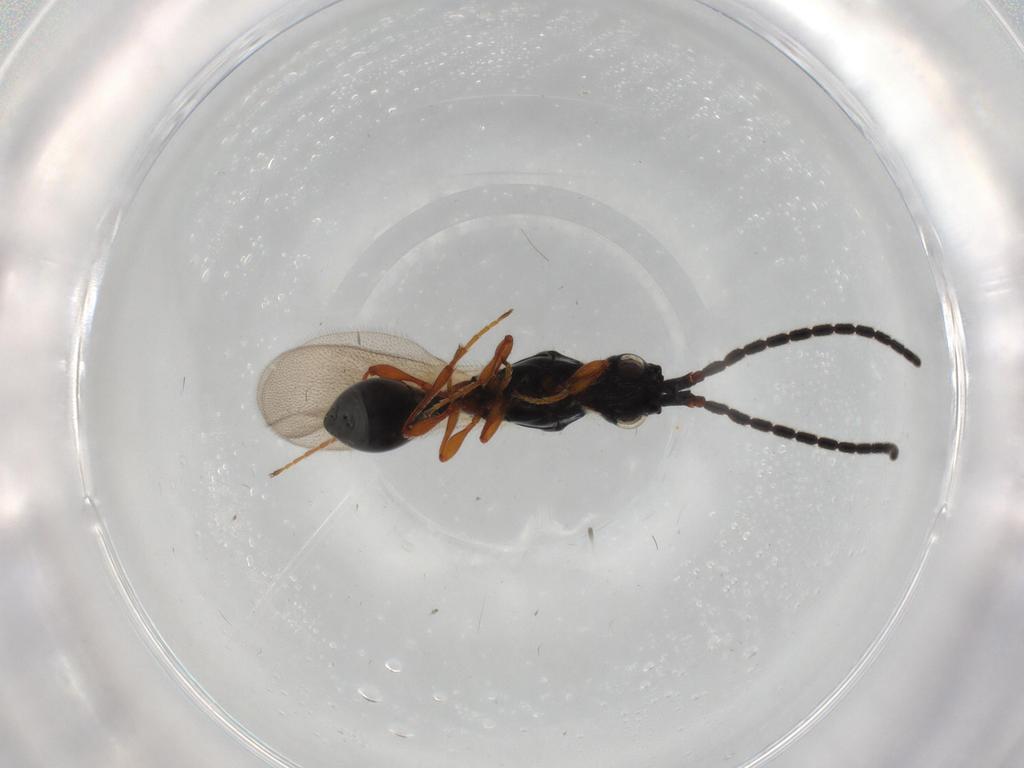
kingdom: Animalia
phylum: Arthropoda
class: Insecta
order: Hymenoptera
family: Diapriidae
